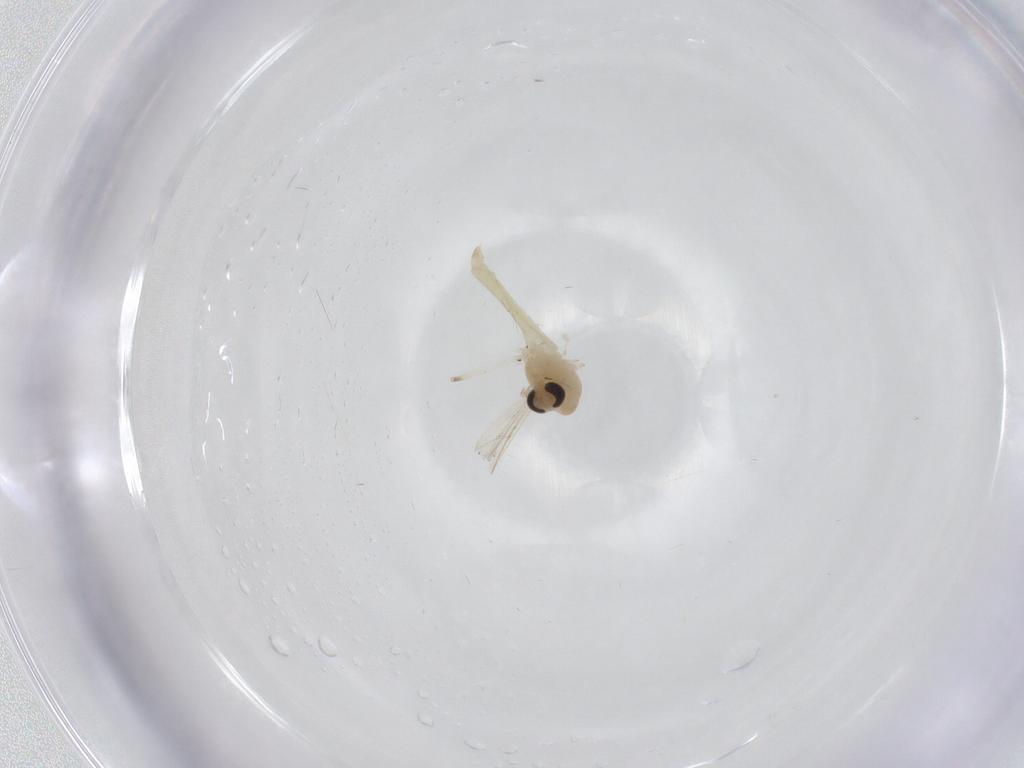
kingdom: Animalia
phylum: Arthropoda
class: Insecta
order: Diptera
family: Chironomidae
